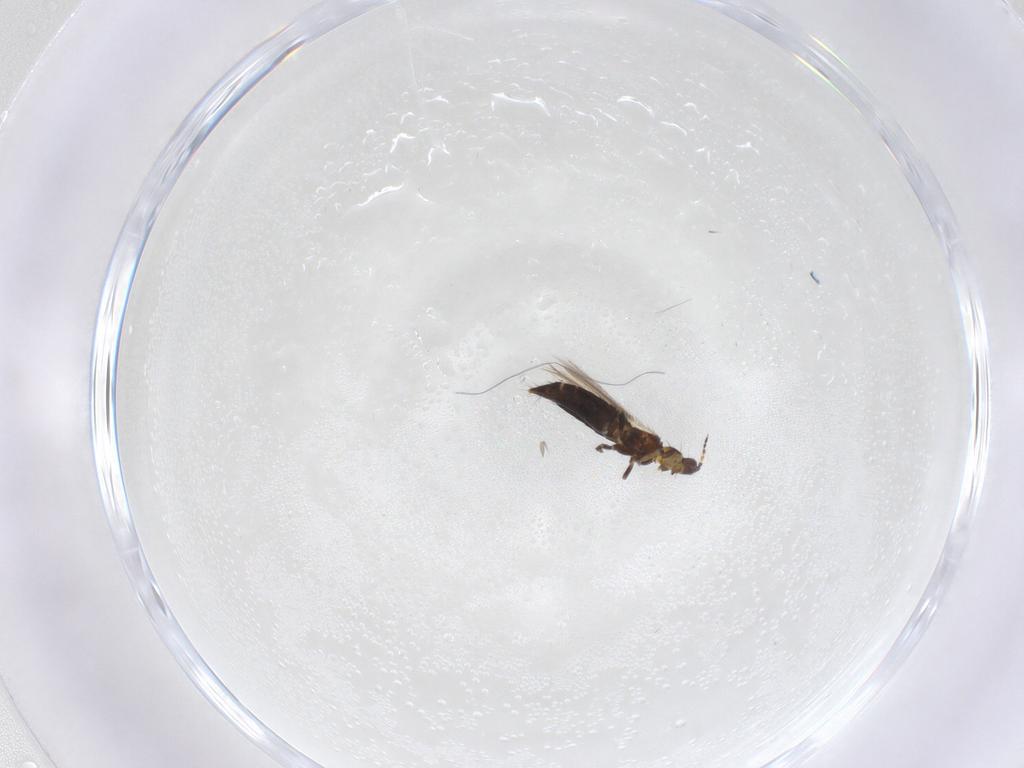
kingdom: Animalia
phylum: Arthropoda
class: Insecta
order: Thysanoptera
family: Thripidae
